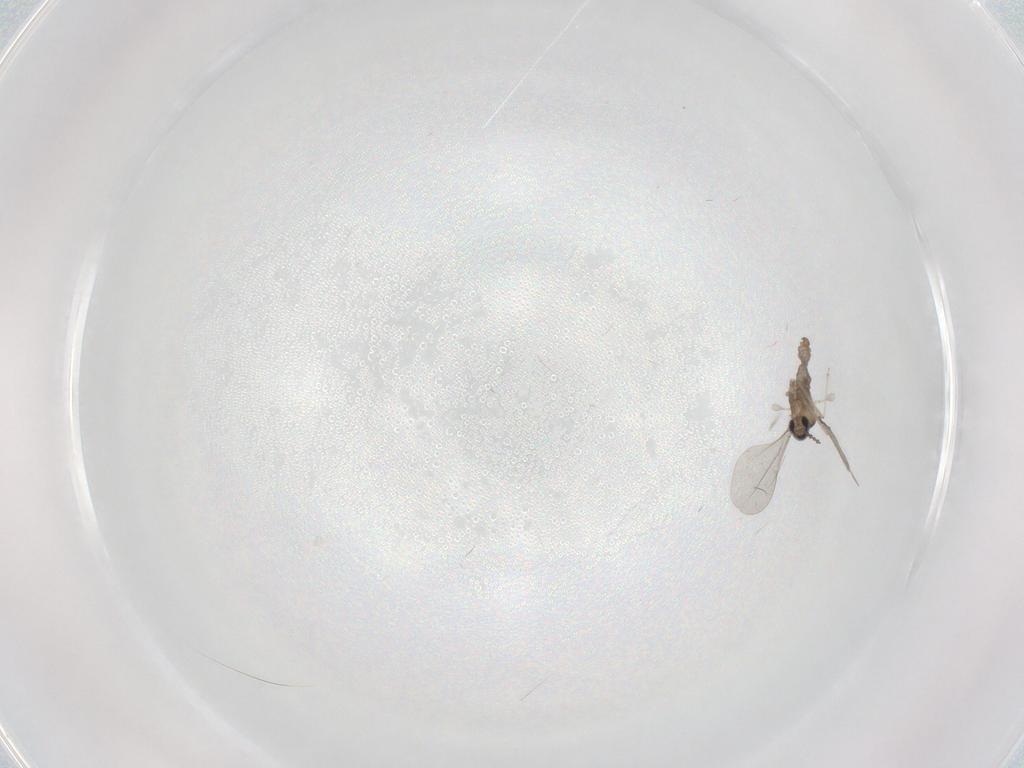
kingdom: Animalia
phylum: Arthropoda
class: Insecta
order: Diptera
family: Cecidomyiidae
